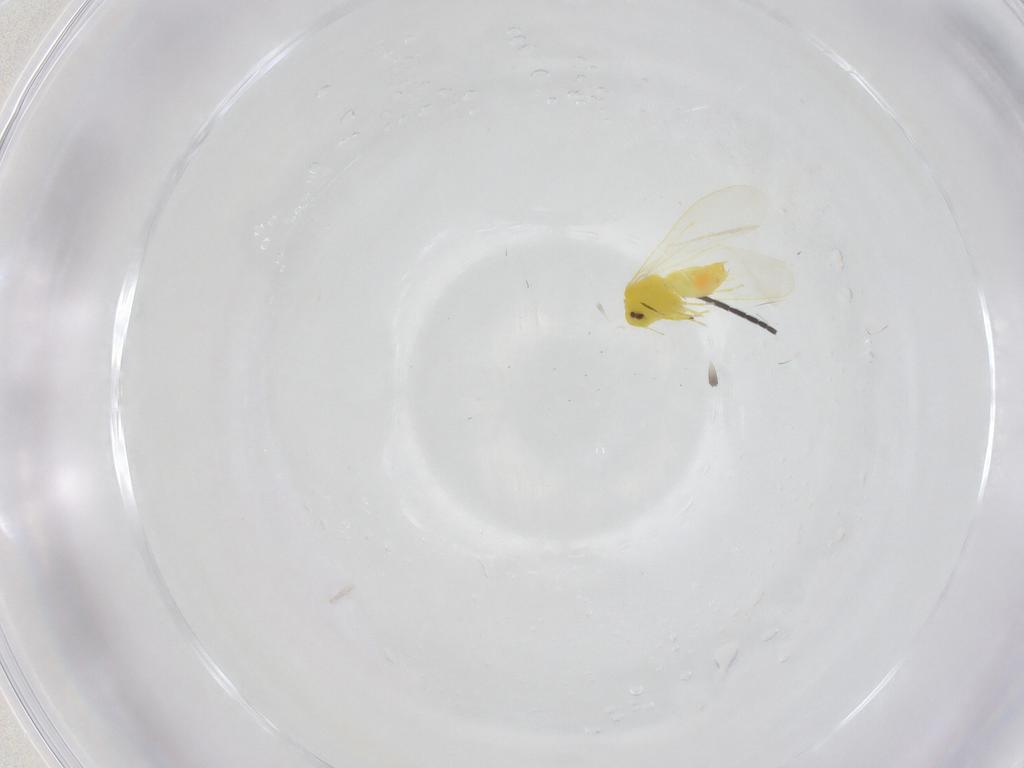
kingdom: Animalia
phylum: Arthropoda
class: Insecta
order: Hemiptera
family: Aleyrodidae
